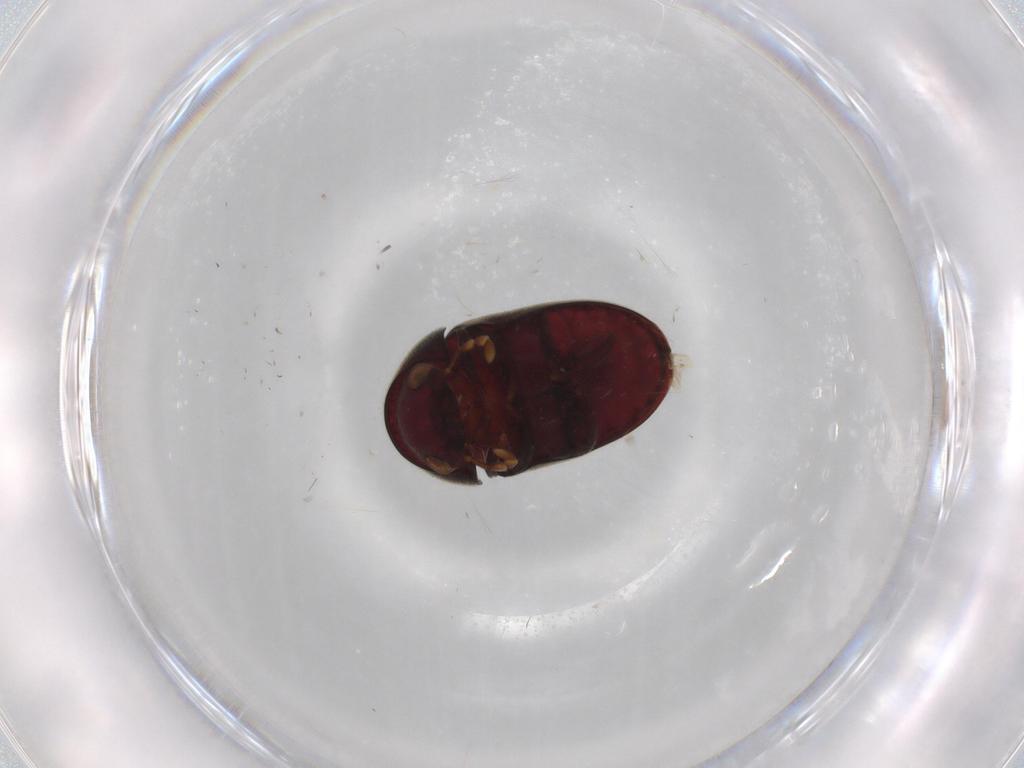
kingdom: Animalia
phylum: Arthropoda
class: Insecta
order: Coleoptera
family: Ptinidae
